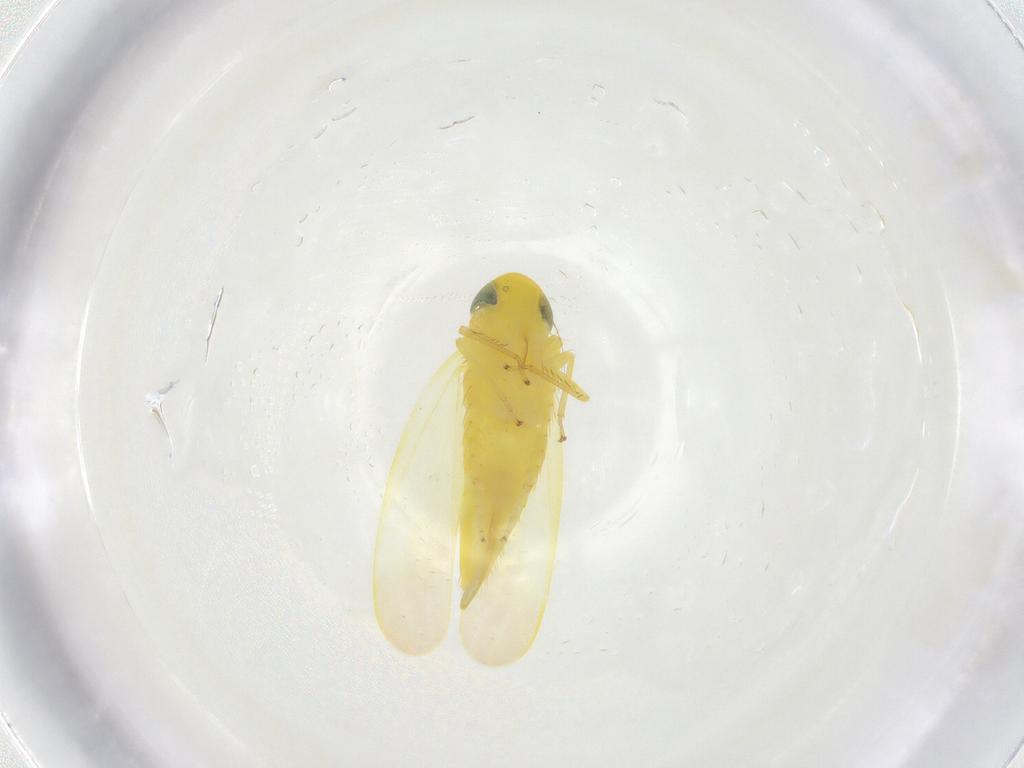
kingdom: Animalia
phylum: Arthropoda
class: Insecta
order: Hemiptera
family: Cicadellidae
